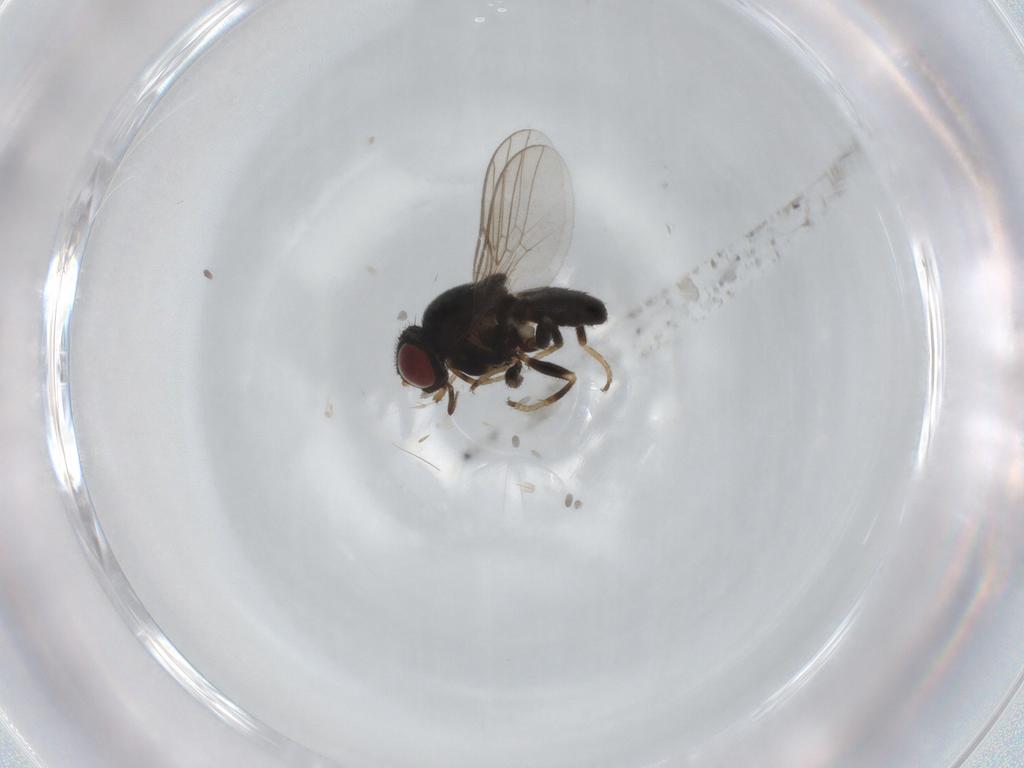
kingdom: Animalia
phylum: Arthropoda
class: Insecta
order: Diptera
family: Chloropidae
